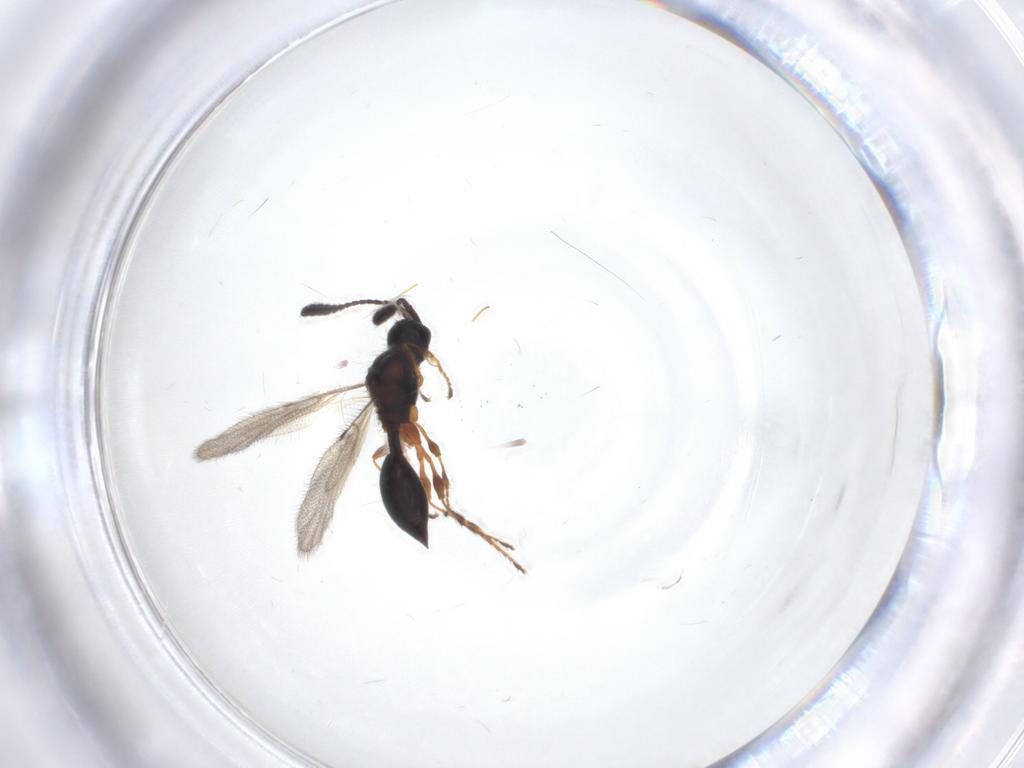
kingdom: Animalia
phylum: Arthropoda
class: Insecta
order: Hymenoptera
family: Diapriidae
